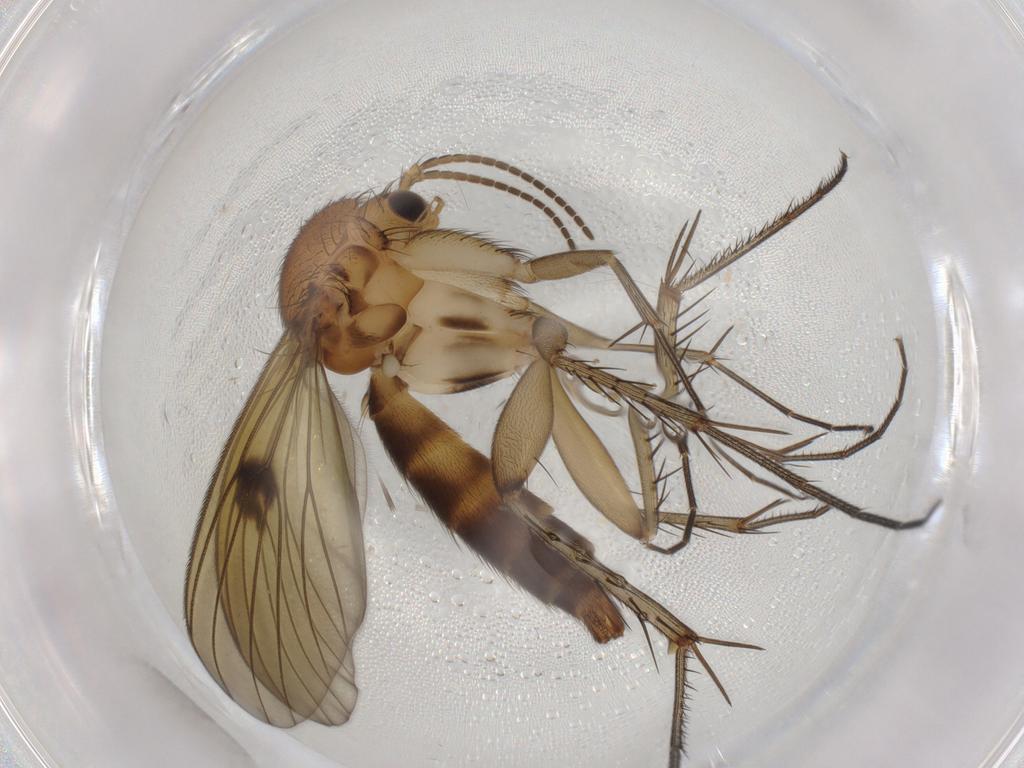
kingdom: Animalia
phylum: Arthropoda
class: Insecta
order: Diptera
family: Sciaridae
